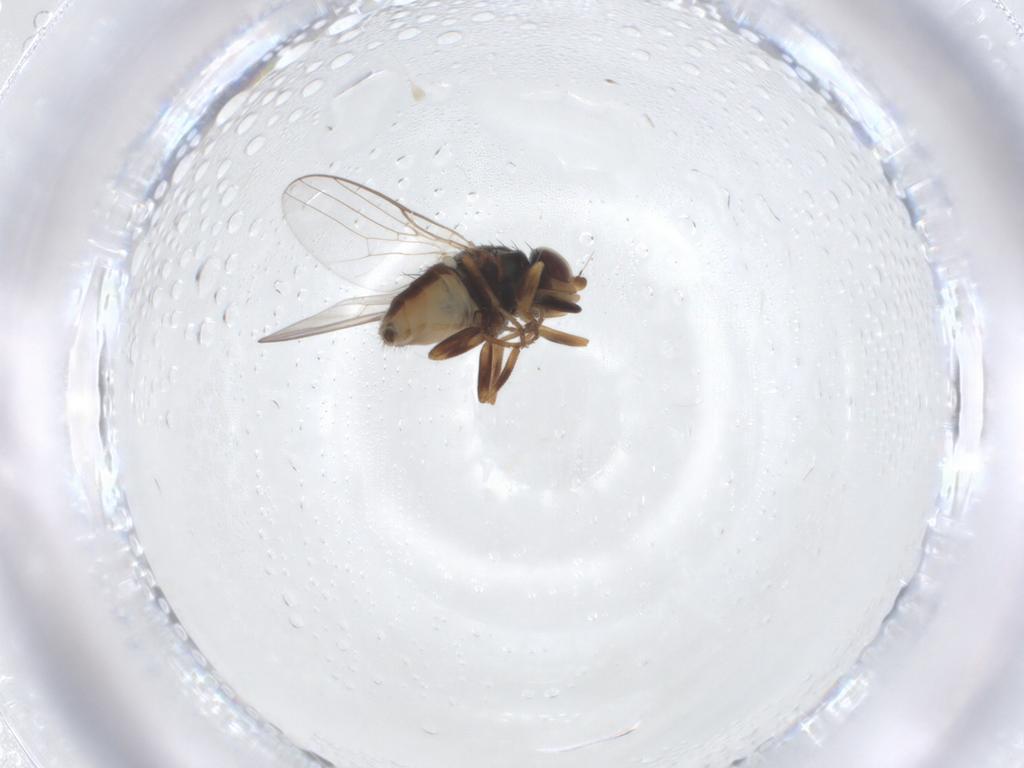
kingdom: Animalia
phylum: Arthropoda
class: Insecta
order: Diptera
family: Chloropidae
